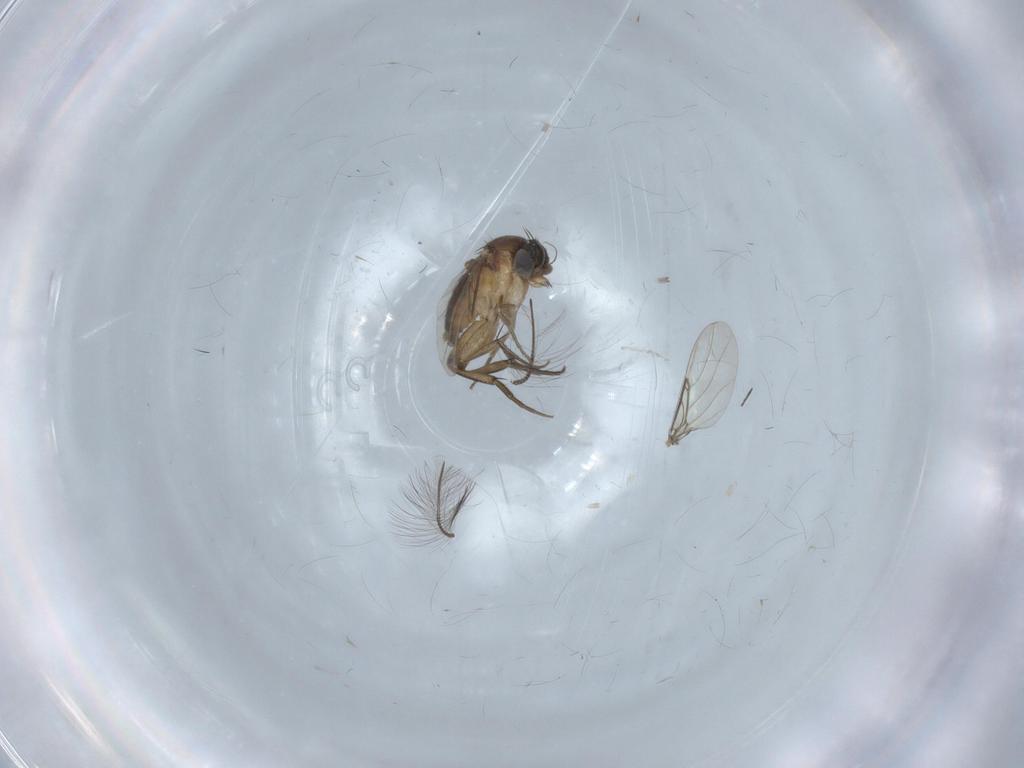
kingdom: Animalia
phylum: Arthropoda
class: Insecta
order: Diptera
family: Phoridae
